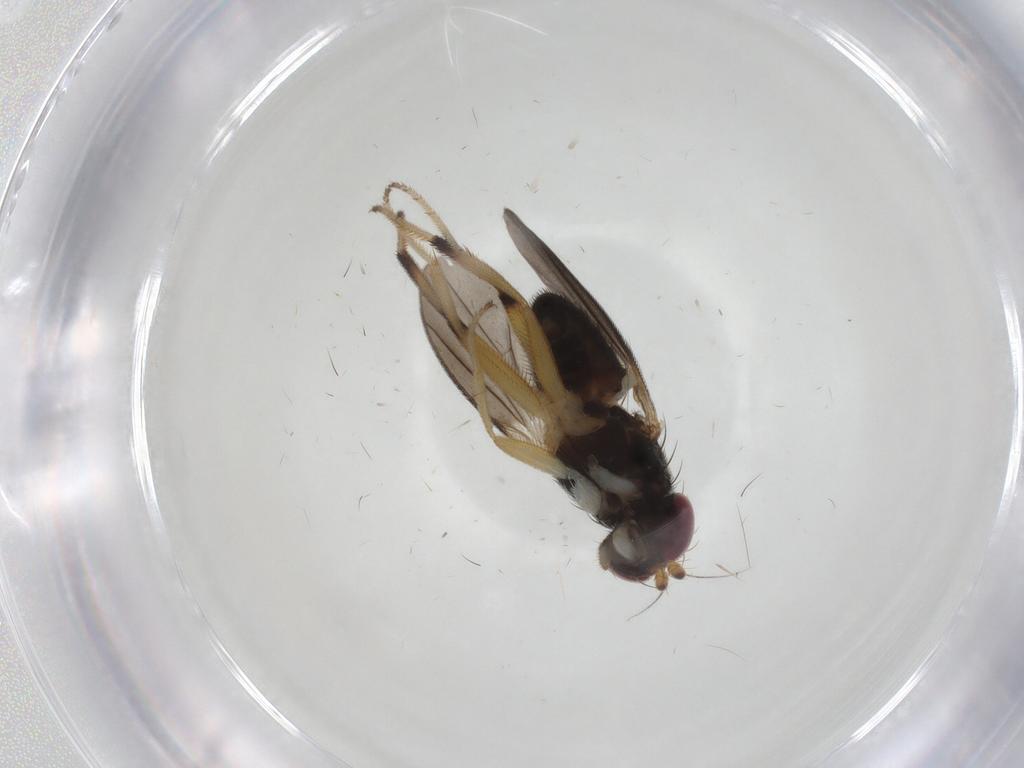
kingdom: Animalia
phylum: Arthropoda
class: Insecta
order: Diptera
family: Clusiidae
